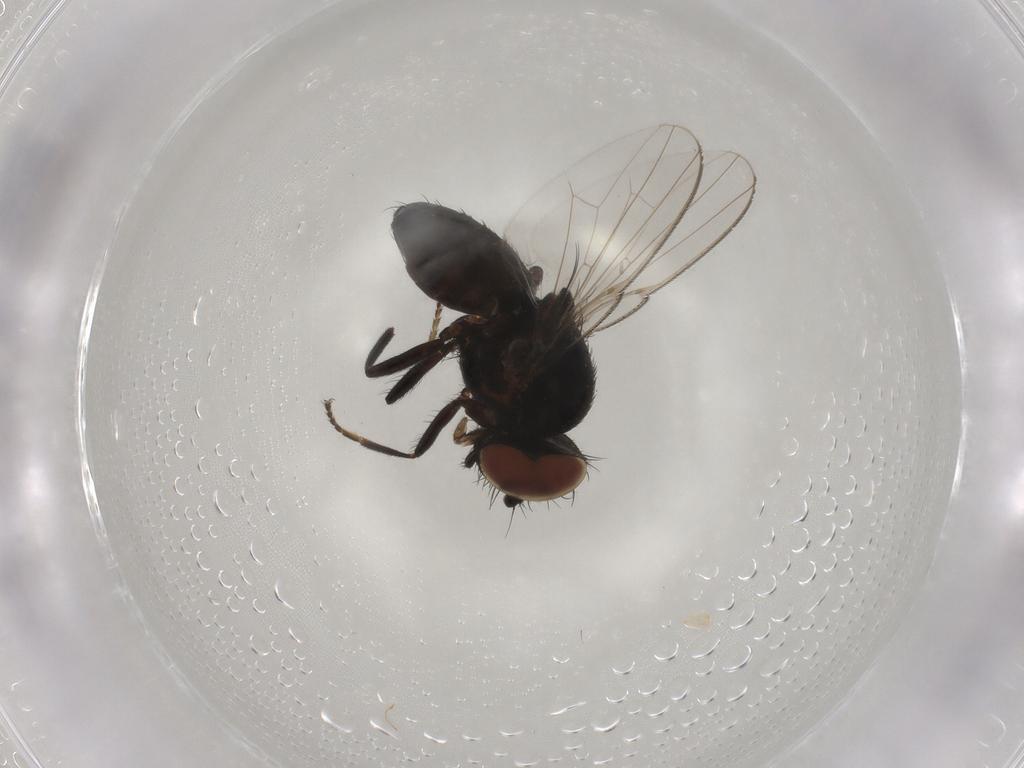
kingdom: Animalia
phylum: Arthropoda
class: Insecta
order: Diptera
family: Milichiidae
